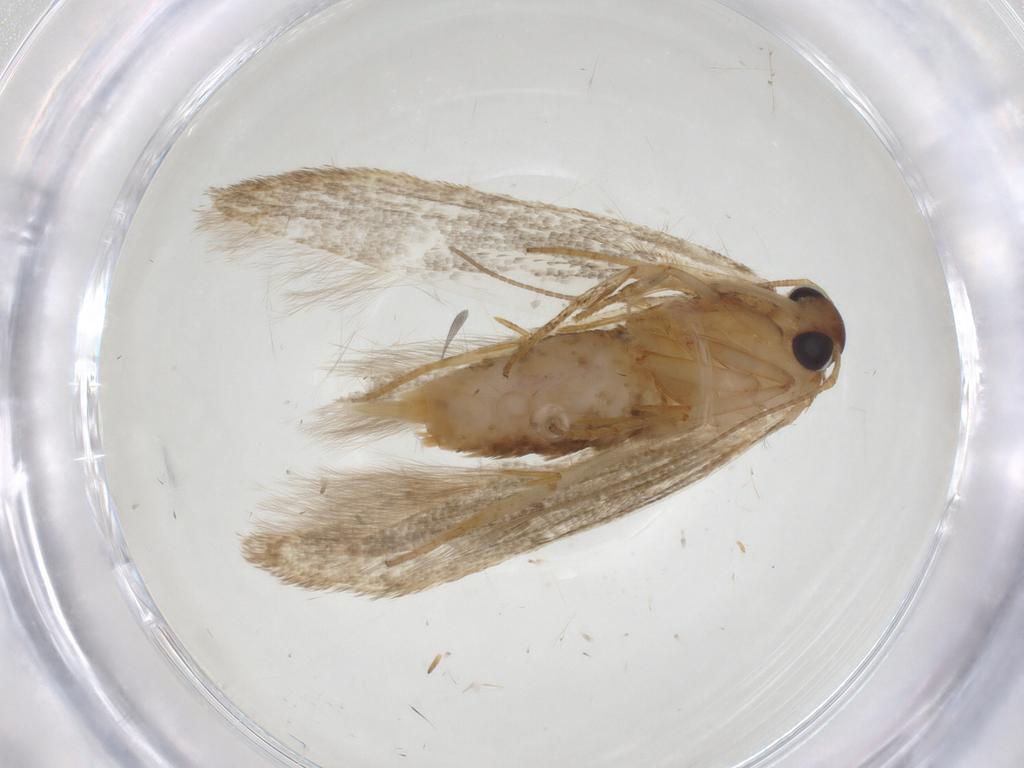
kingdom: Animalia
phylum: Arthropoda
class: Insecta
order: Lepidoptera
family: Blastobasidae
